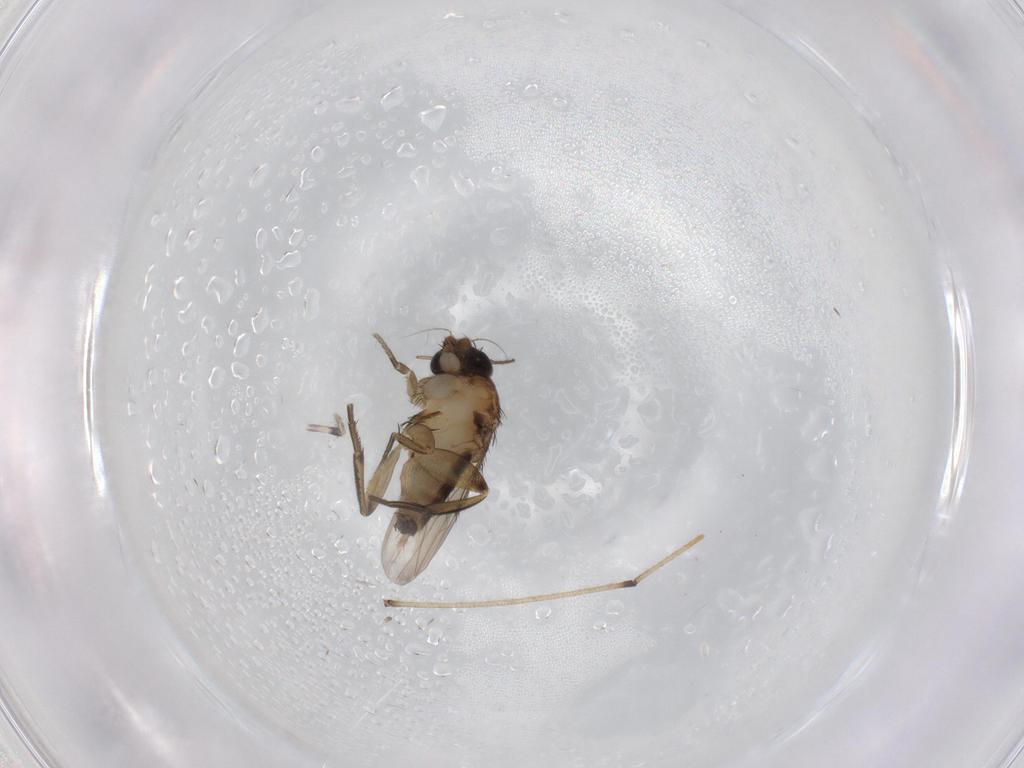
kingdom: Animalia
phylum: Arthropoda
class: Insecta
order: Diptera
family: Phoridae
